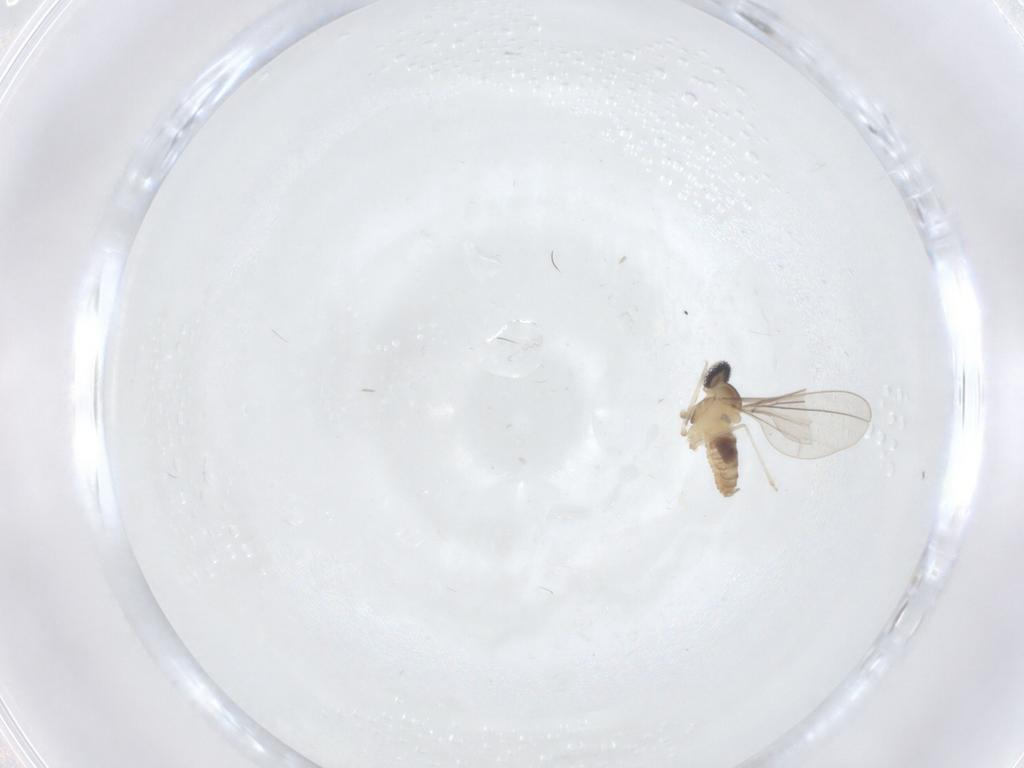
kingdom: Animalia
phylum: Arthropoda
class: Insecta
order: Diptera
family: Cecidomyiidae
